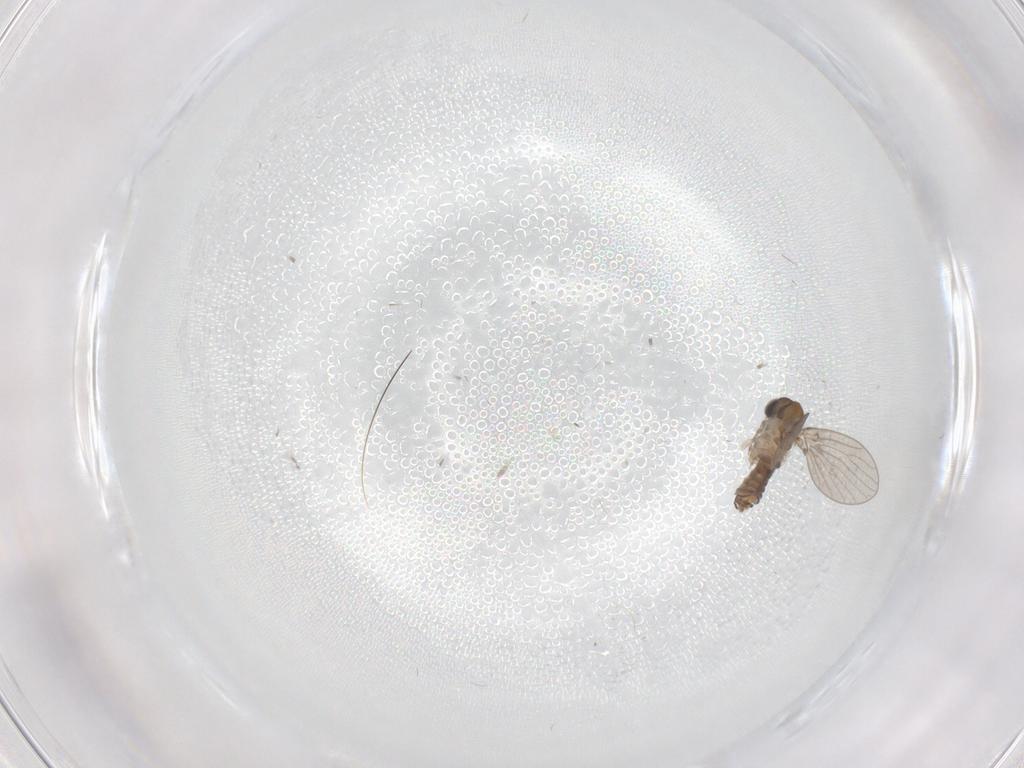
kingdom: Animalia
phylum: Arthropoda
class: Insecta
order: Diptera
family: Cecidomyiidae
